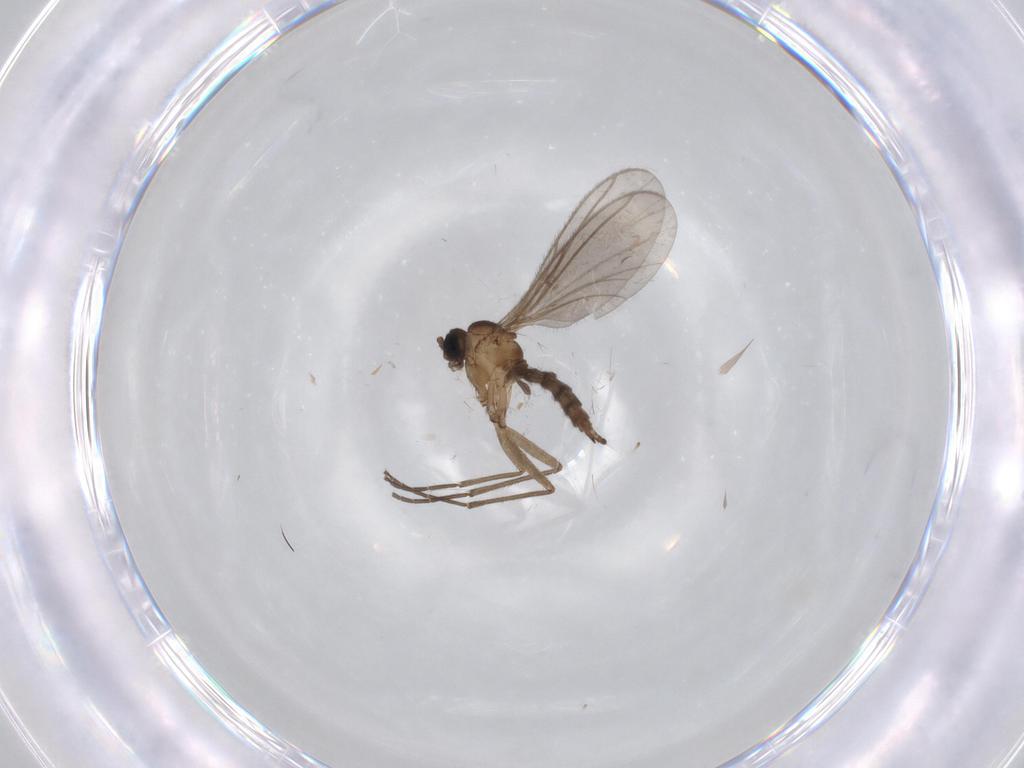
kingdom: Animalia
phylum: Arthropoda
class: Insecta
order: Diptera
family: Sciaridae
